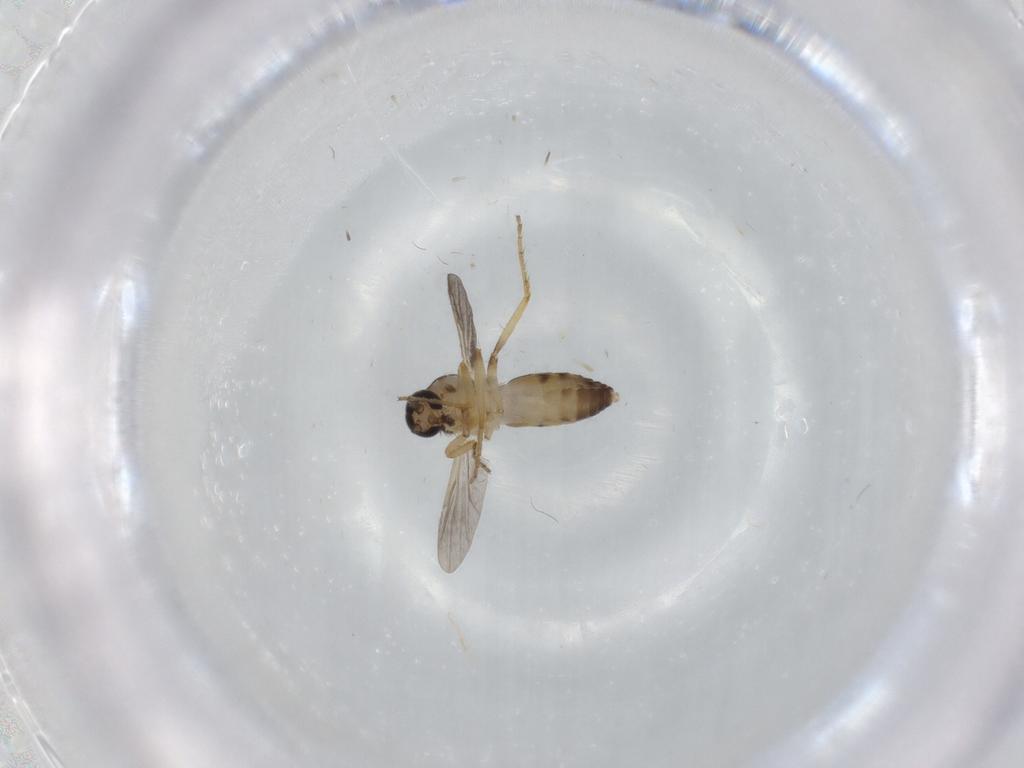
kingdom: Animalia
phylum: Arthropoda
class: Insecta
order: Diptera
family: Ceratopogonidae
